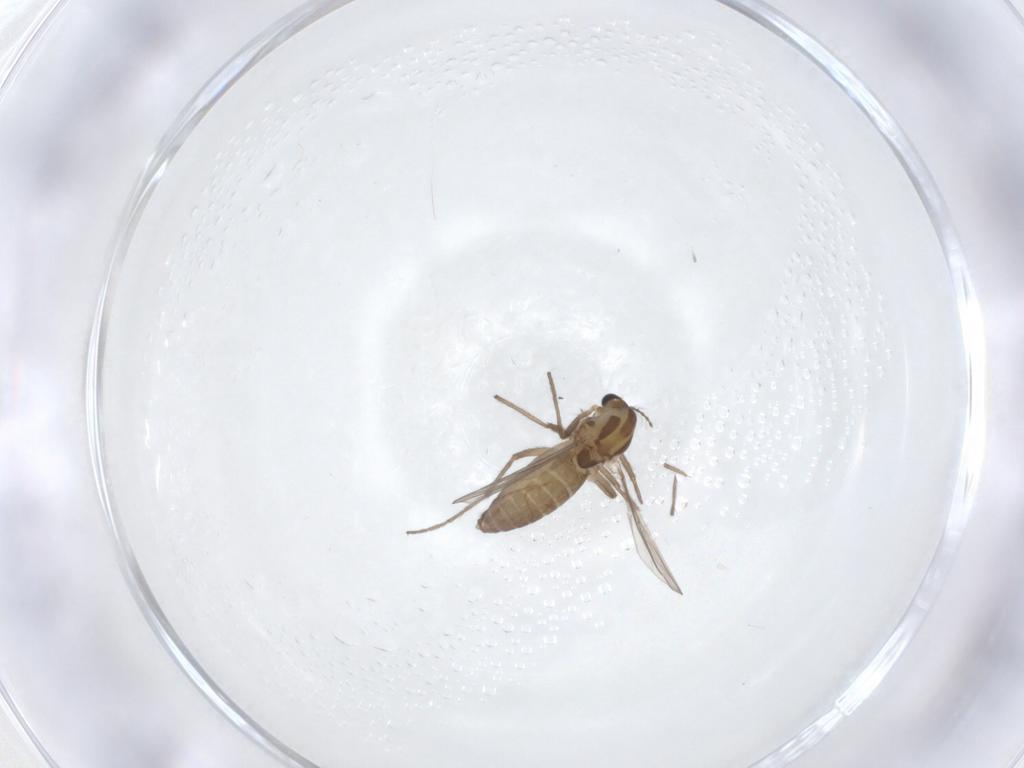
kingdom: Animalia
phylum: Arthropoda
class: Insecta
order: Diptera
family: Chironomidae
